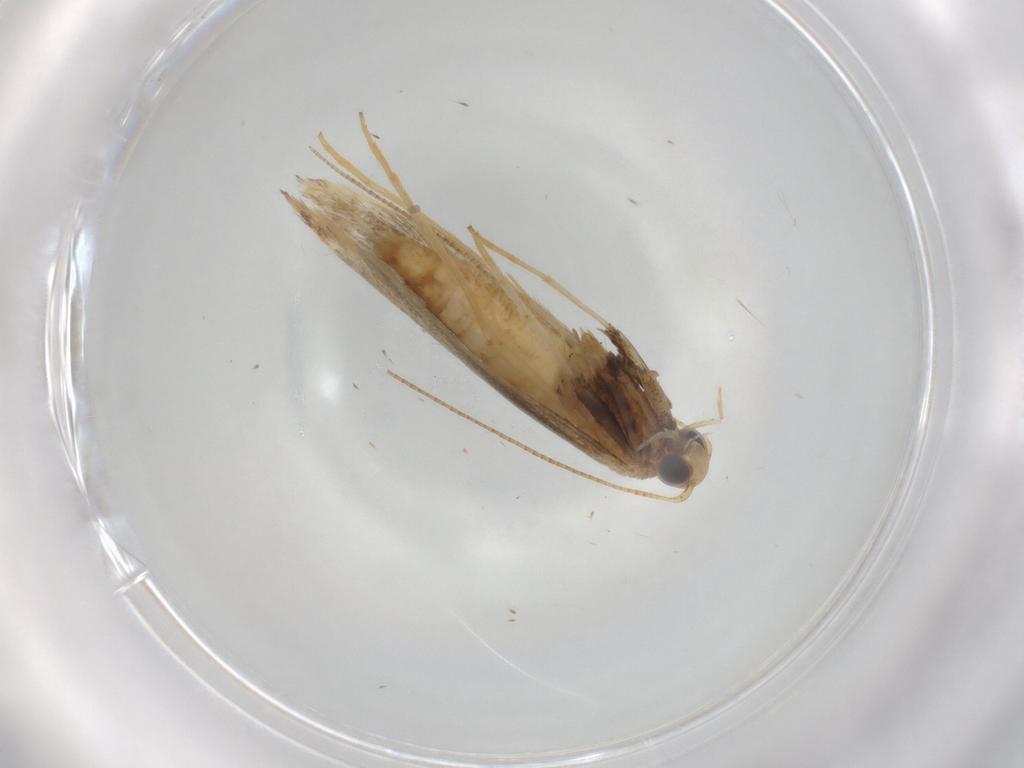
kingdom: Animalia
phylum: Arthropoda
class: Insecta
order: Lepidoptera
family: Gracillariidae
